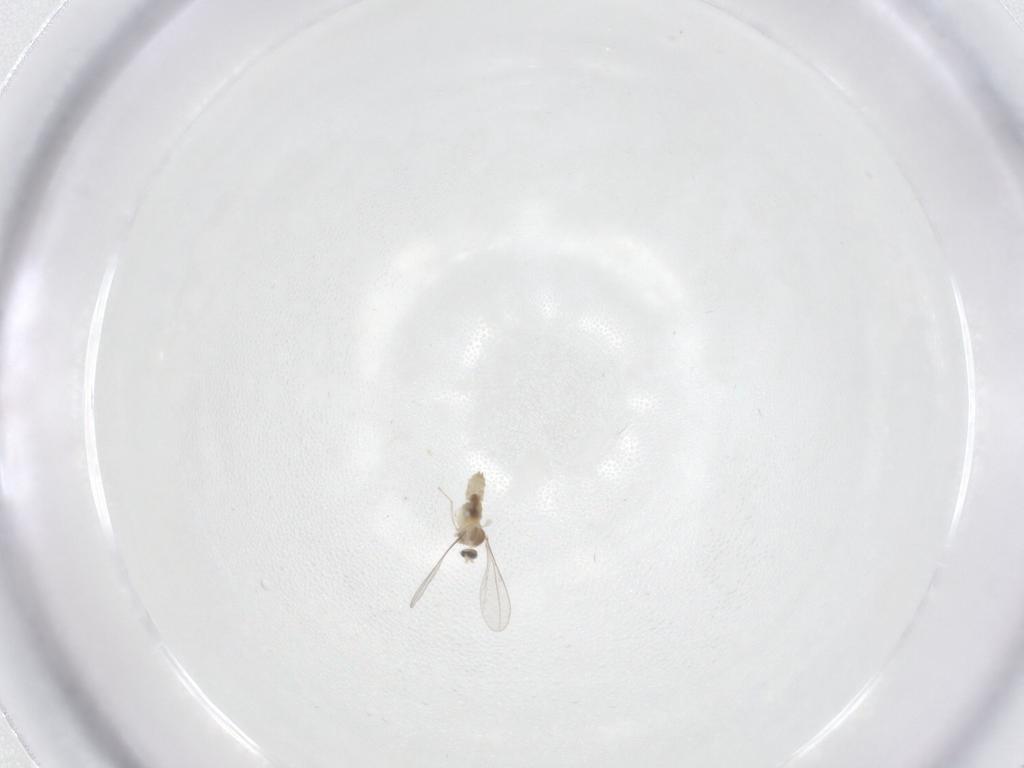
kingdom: Animalia
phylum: Arthropoda
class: Insecta
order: Diptera
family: Cecidomyiidae
